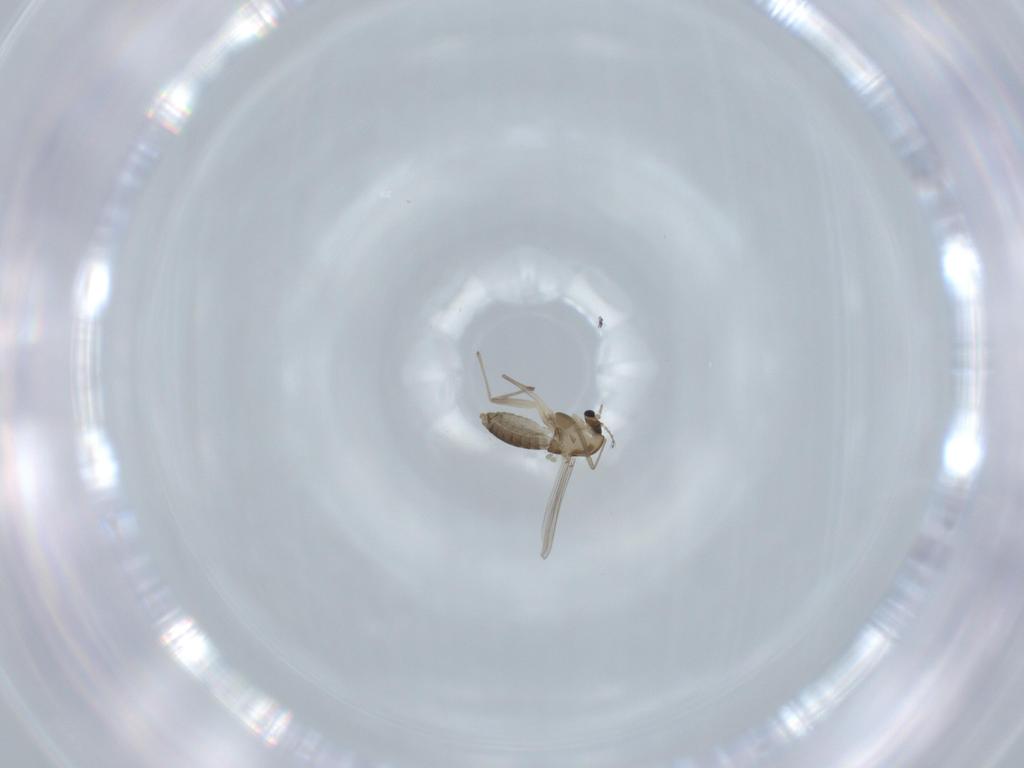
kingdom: Animalia
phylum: Arthropoda
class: Insecta
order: Diptera
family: Chironomidae
